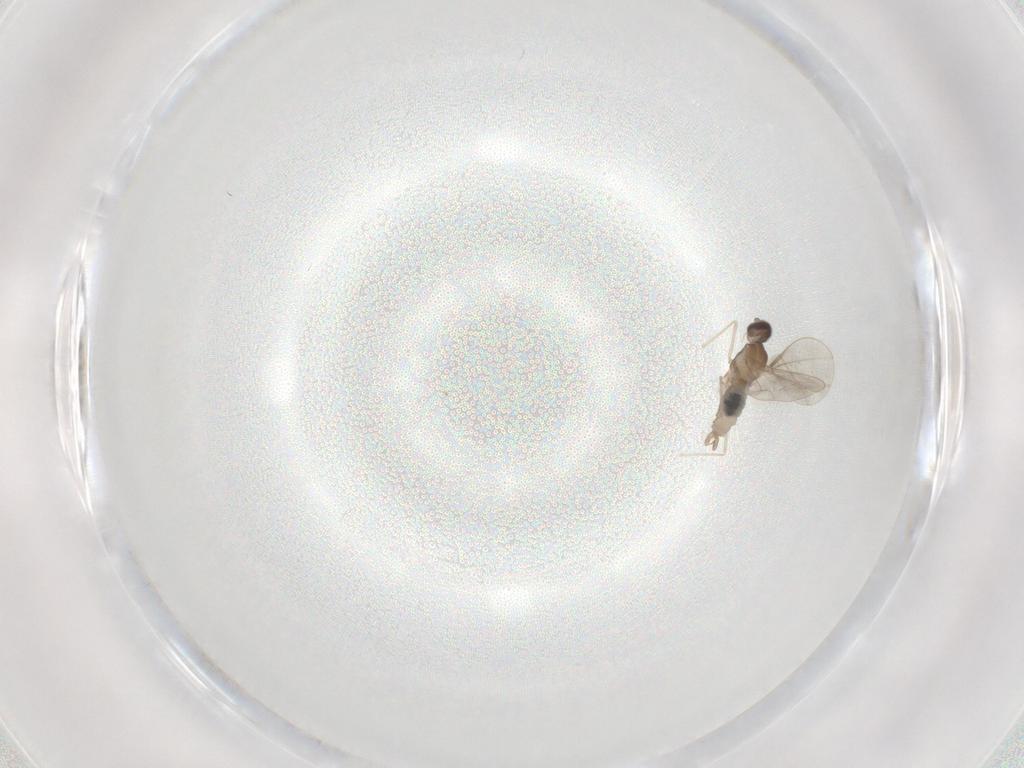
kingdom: Animalia
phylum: Arthropoda
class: Insecta
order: Diptera
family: Cecidomyiidae
